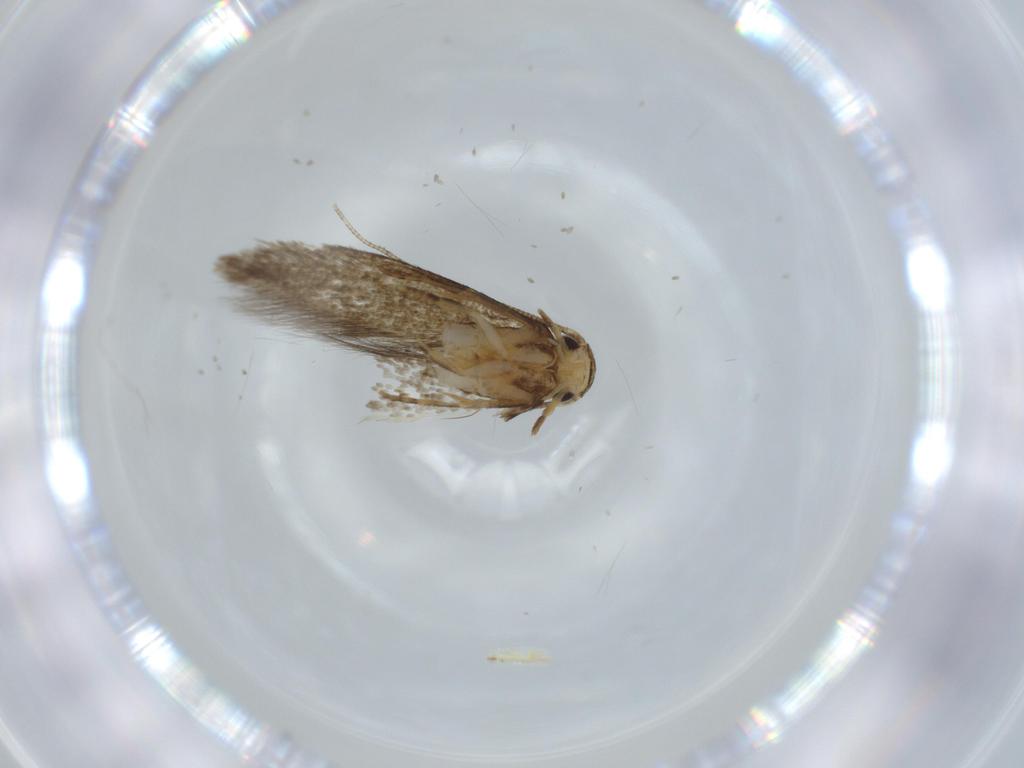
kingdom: Animalia
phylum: Arthropoda
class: Insecta
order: Lepidoptera
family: Tineidae
